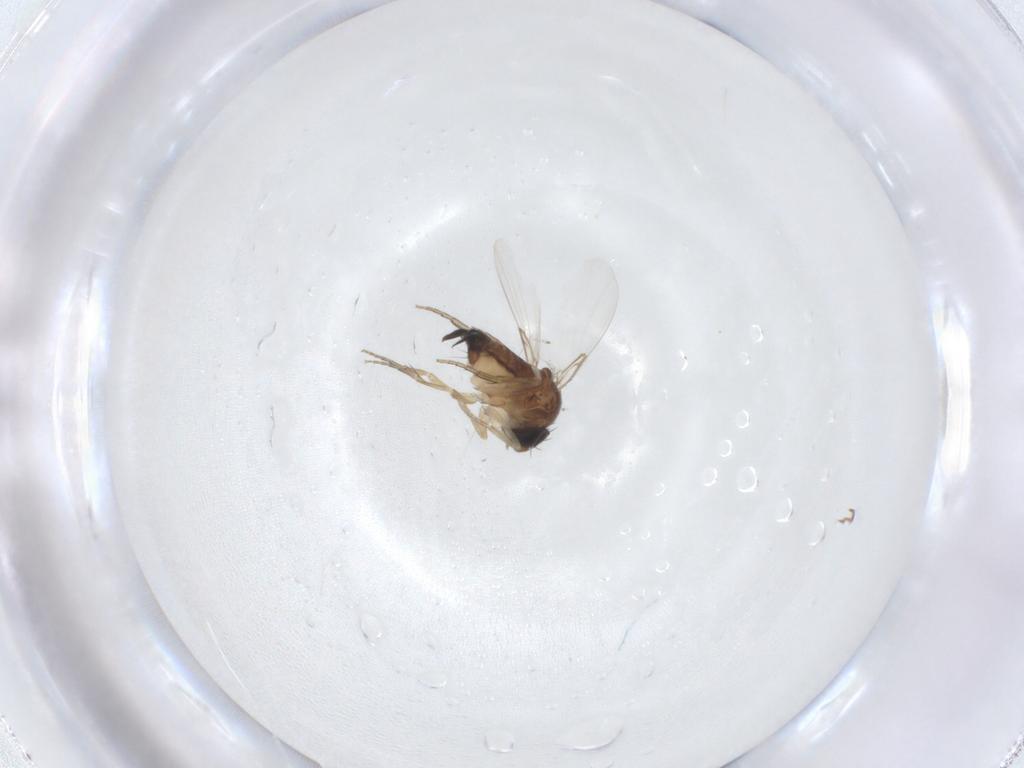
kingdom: Animalia
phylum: Arthropoda
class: Insecta
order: Diptera
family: Phoridae
